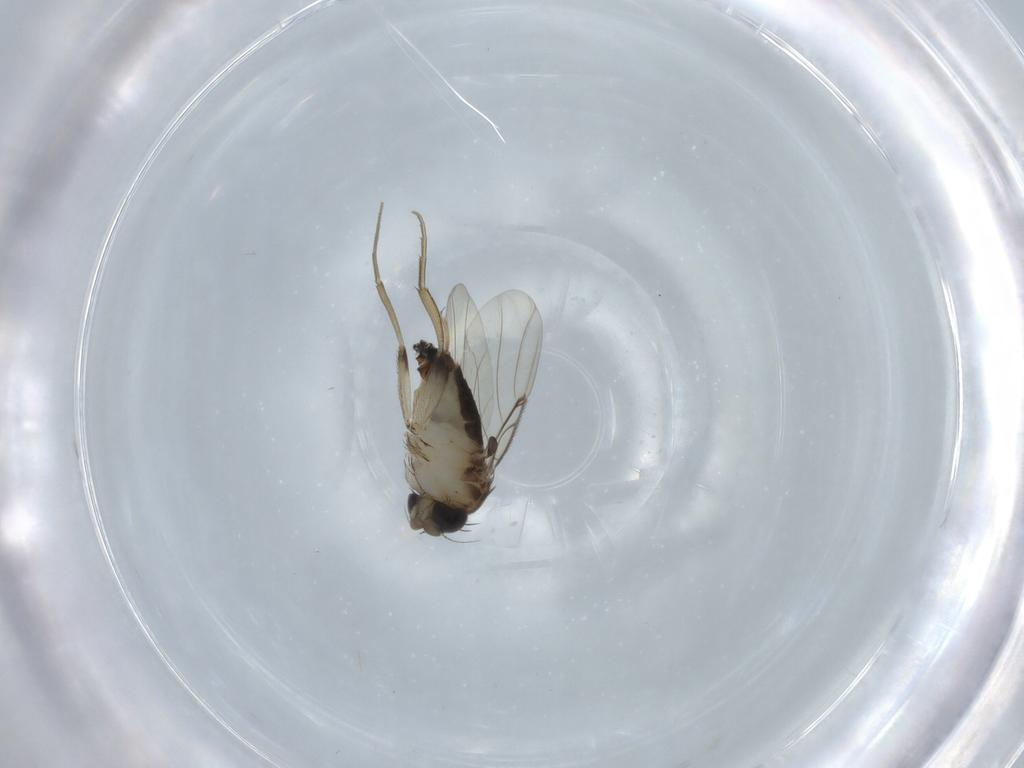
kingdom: Animalia
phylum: Arthropoda
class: Insecta
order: Diptera
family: Phoridae
